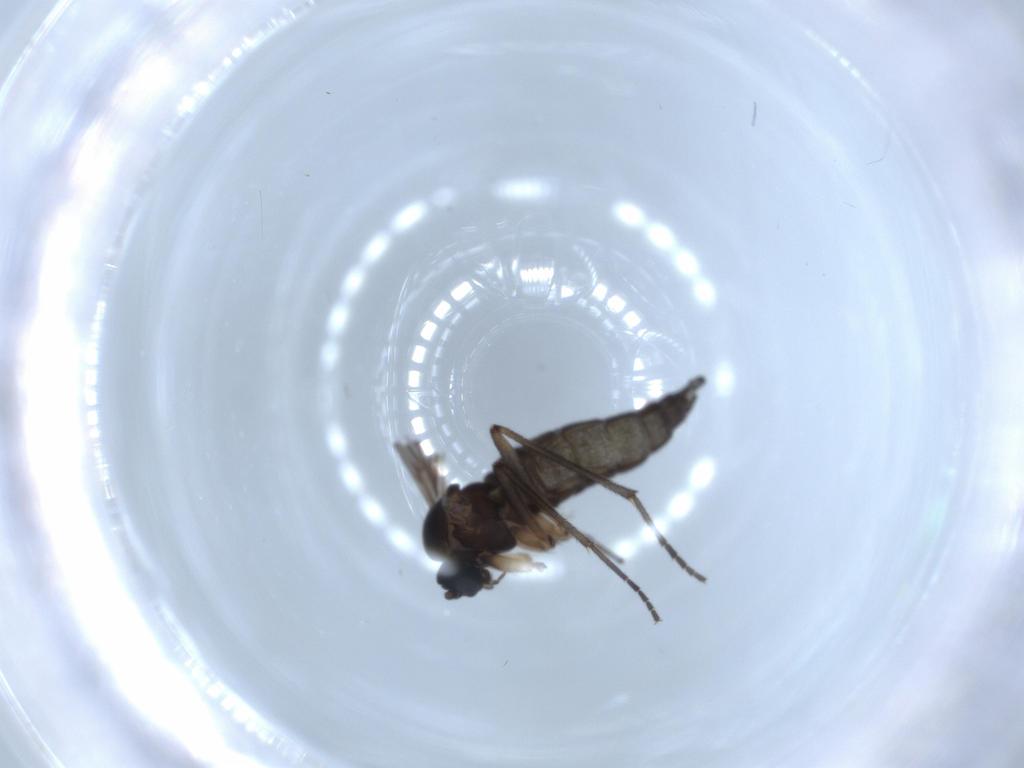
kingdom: Animalia
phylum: Arthropoda
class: Insecta
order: Diptera
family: Sciaridae
